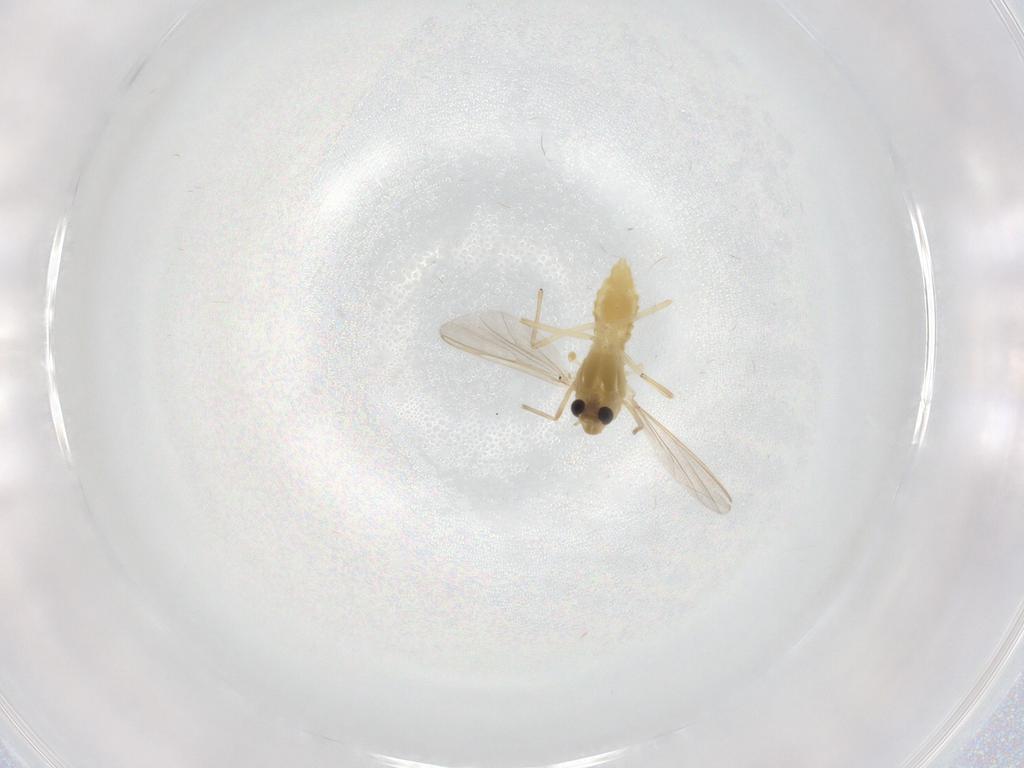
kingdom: Animalia
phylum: Arthropoda
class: Insecta
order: Diptera
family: Chironomidae
